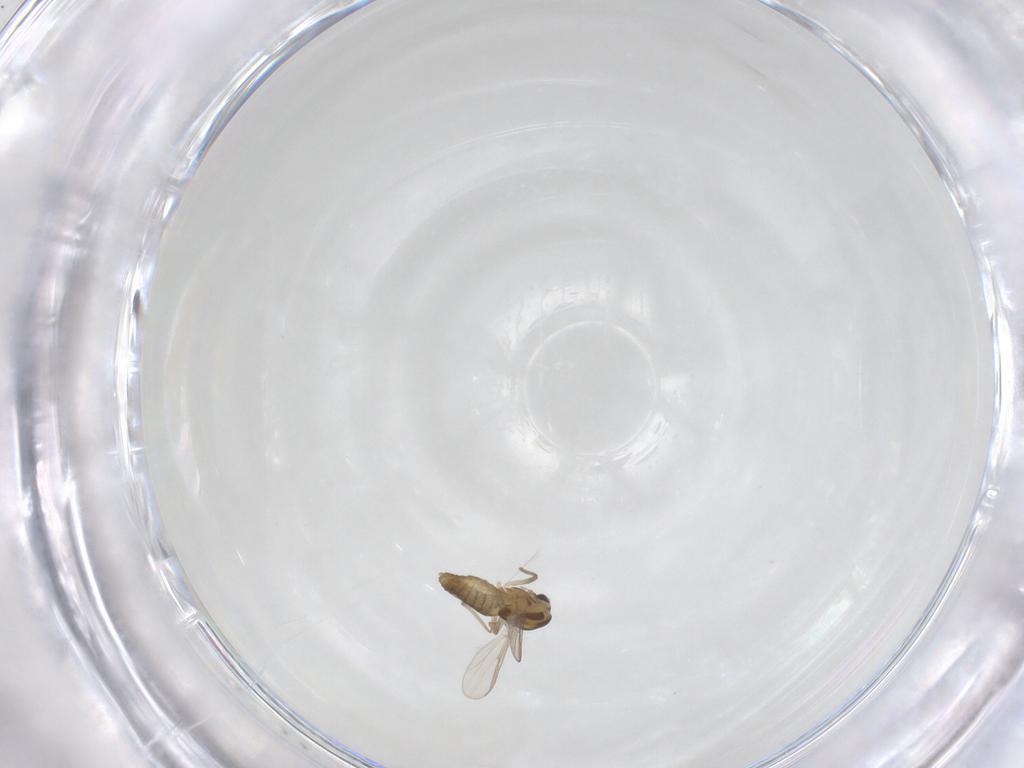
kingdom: Animalia
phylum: Arthropoda
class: Insecta
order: Diptera
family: Chironomidae
